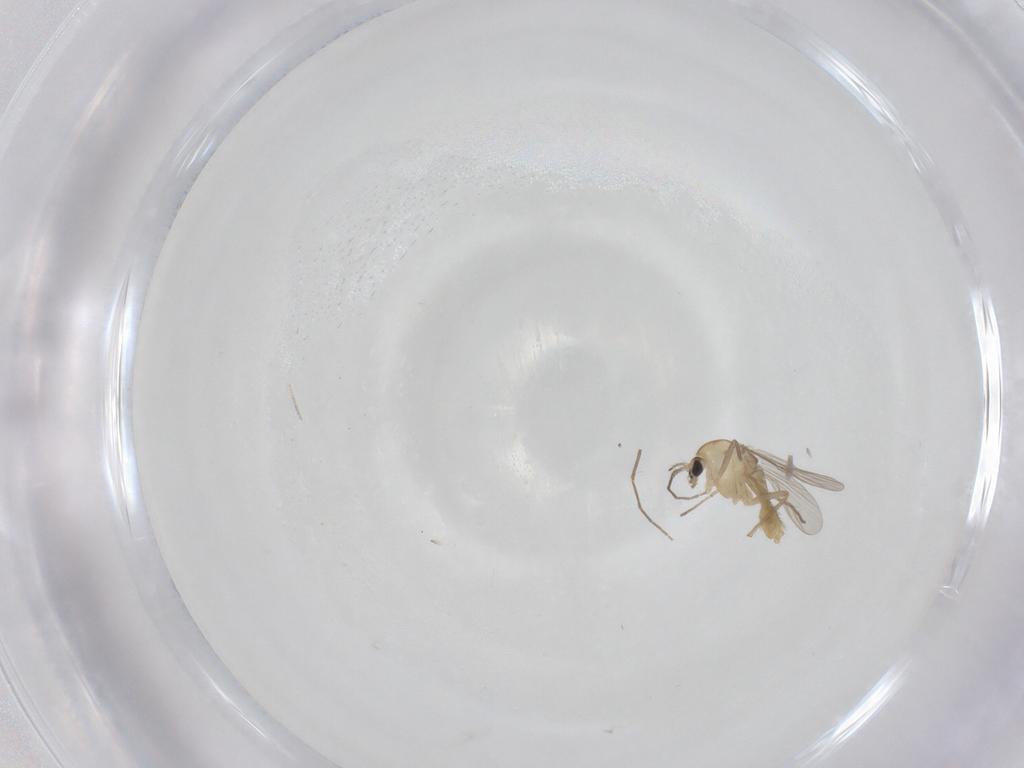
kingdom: Animalia
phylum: Arthropoda
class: Insecta
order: Diptera
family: Chironomidae
